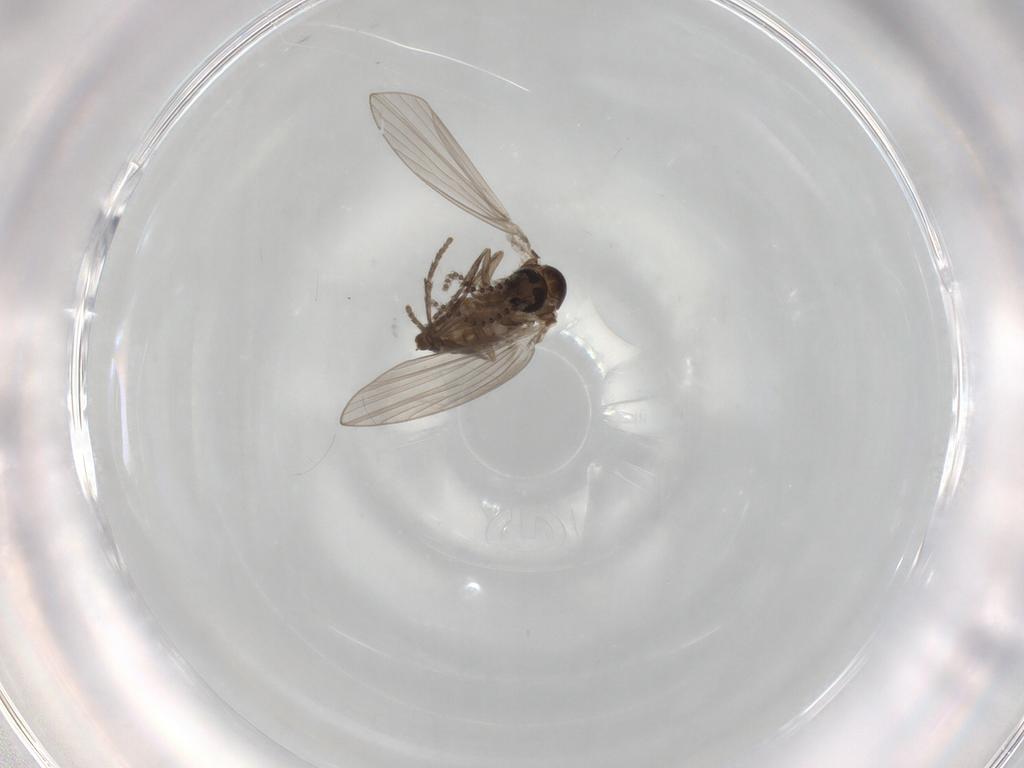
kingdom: Animalia
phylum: Arthropoda
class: Insecta
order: Diptera
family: Psychodidae
